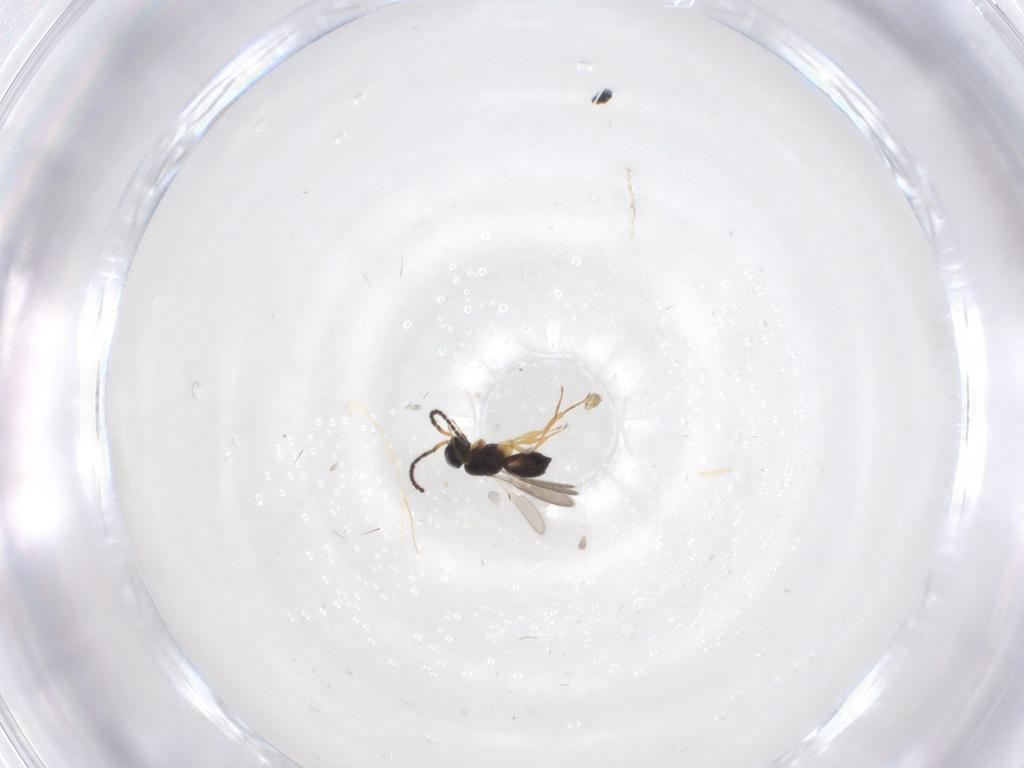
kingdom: Animalia
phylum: Arthropoda
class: Insecta
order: Hymenoptera
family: Scelionidae
